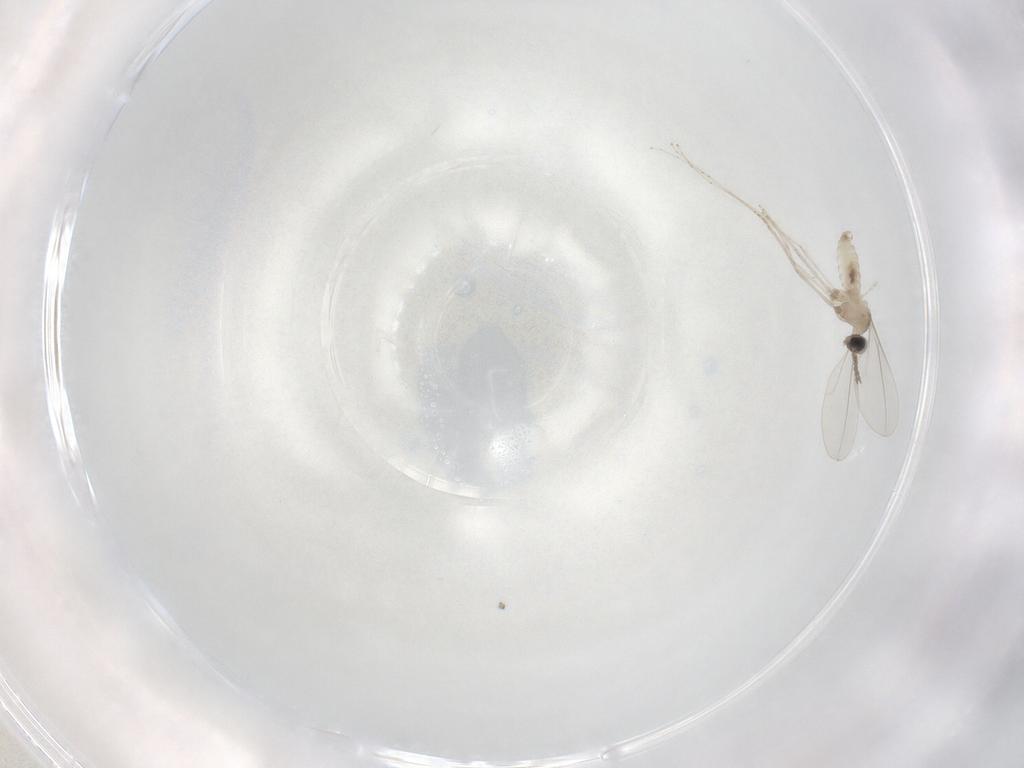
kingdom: Animalia
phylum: Arthropoda
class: Insecta
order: Diptera
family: Cecidomyiidae
